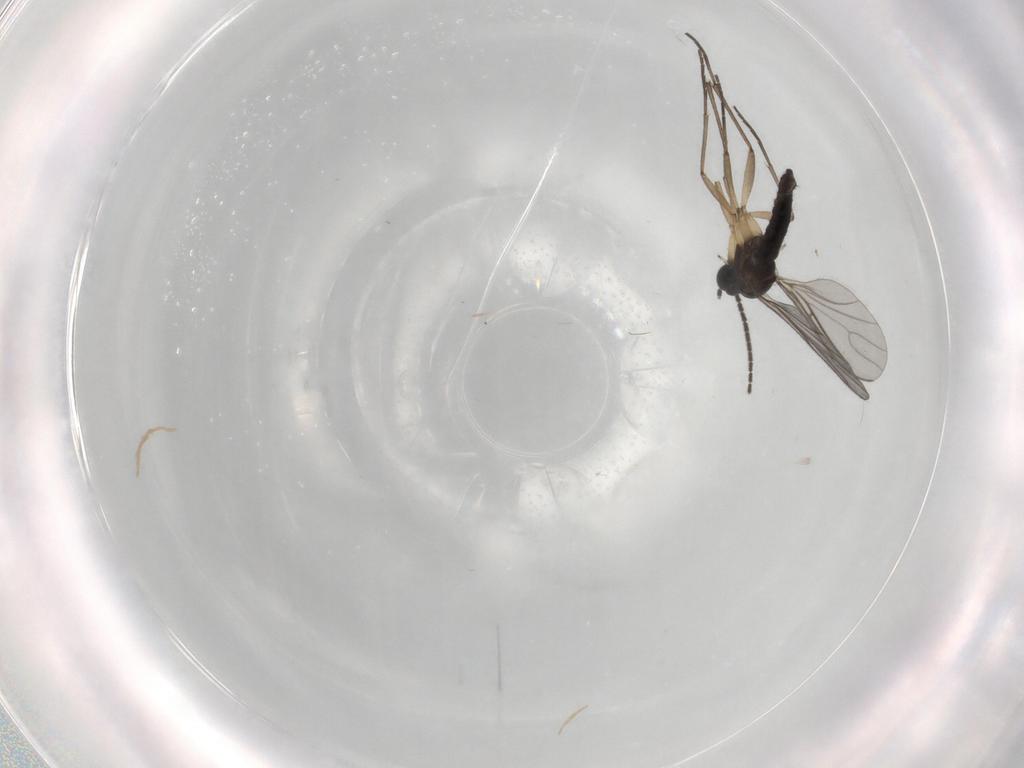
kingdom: Animalia
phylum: Arthropoda
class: Insecta
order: Diptera
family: Sciaridae
